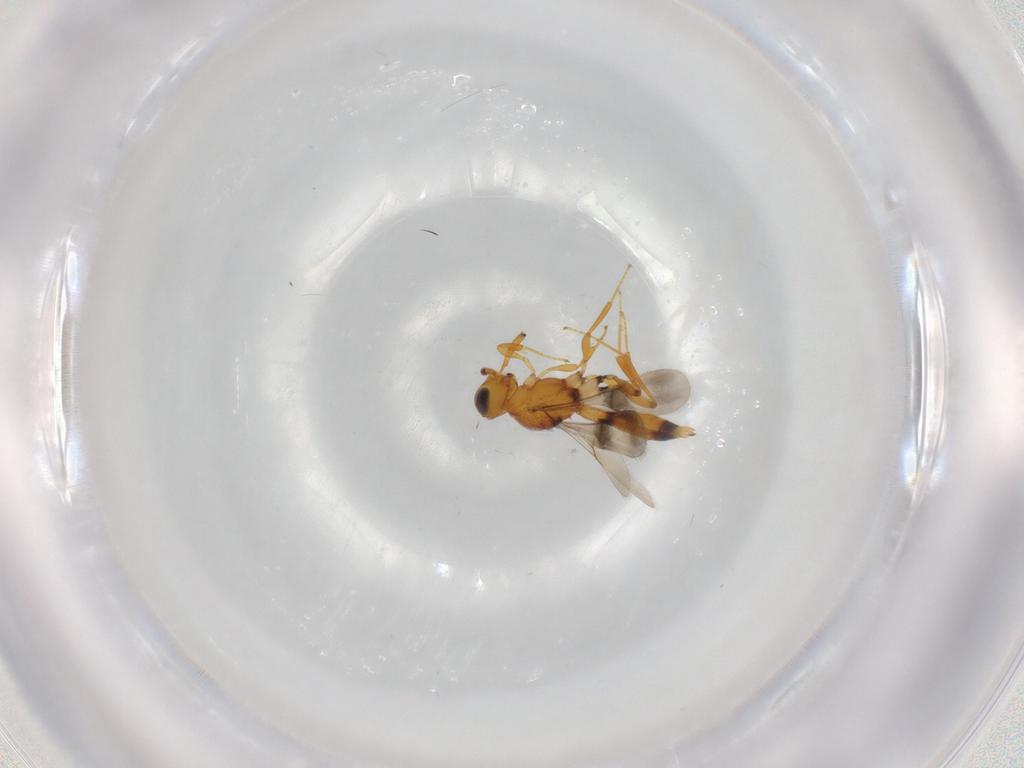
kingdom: Animalia
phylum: Arthropoda
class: Insecta
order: Hymenoptera
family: Figitidae
